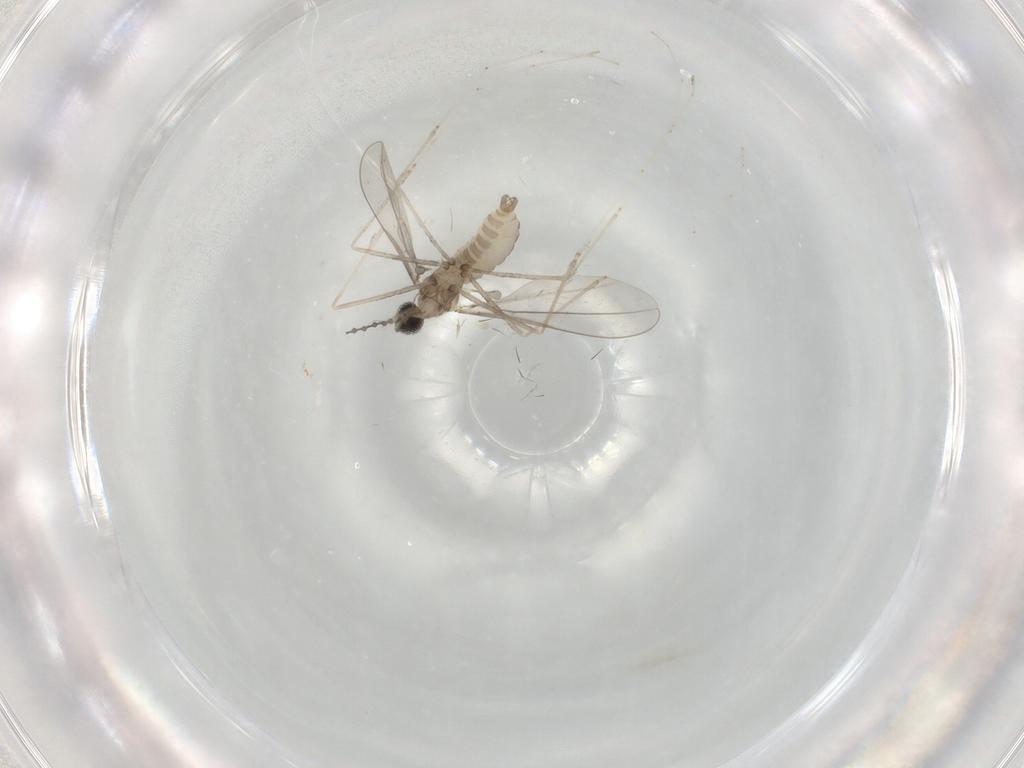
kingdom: Animalia
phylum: Arthropoda
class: Insecta
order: Diptera
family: Cecidomyiidae
